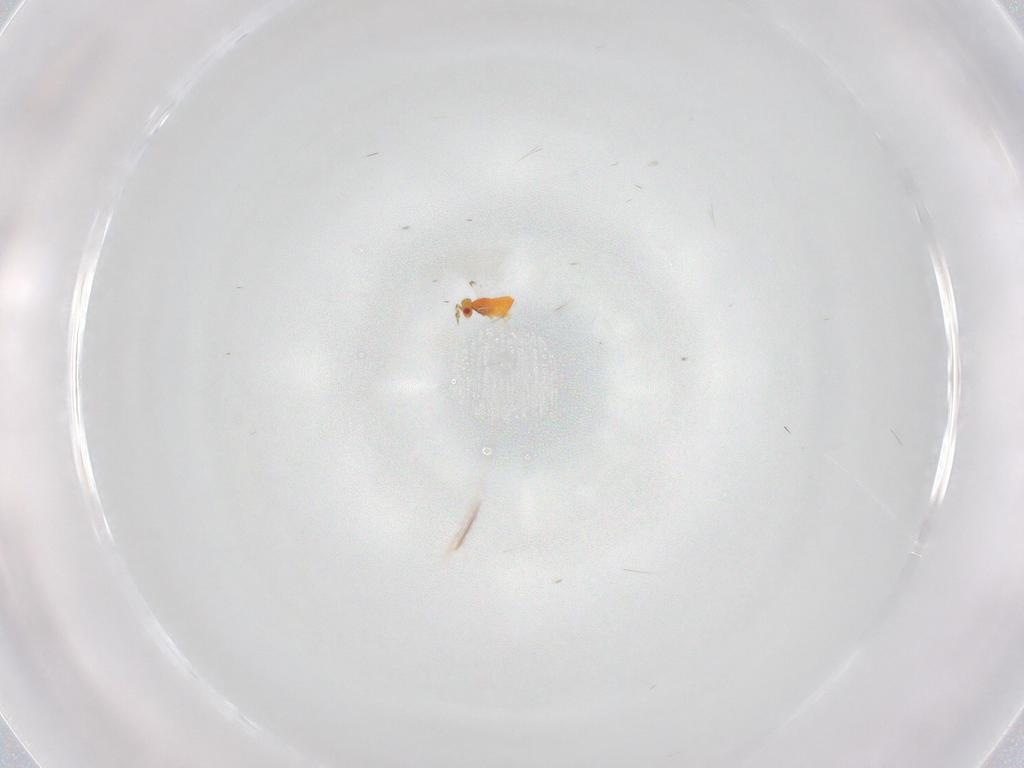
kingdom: Animalia
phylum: Arthropoda
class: Insecta
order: Hymenoptera
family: Trichogrammatidae
